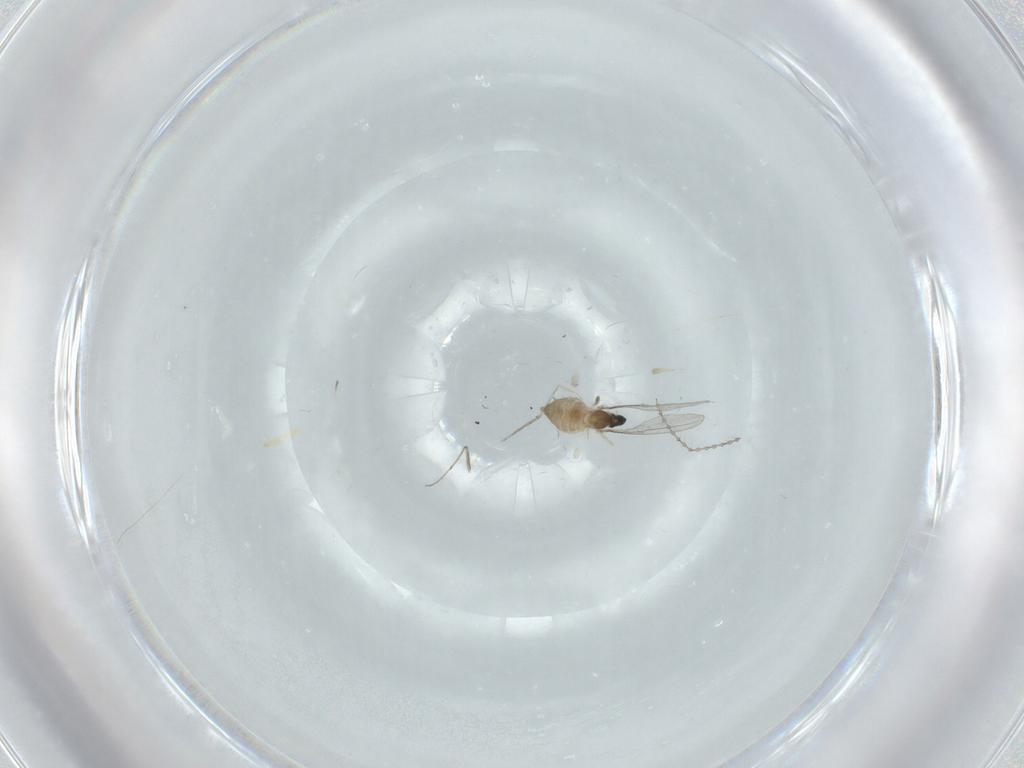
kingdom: Animalia
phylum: Arthropoda
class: Insecta
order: Diptera
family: Cecidomyiidae
